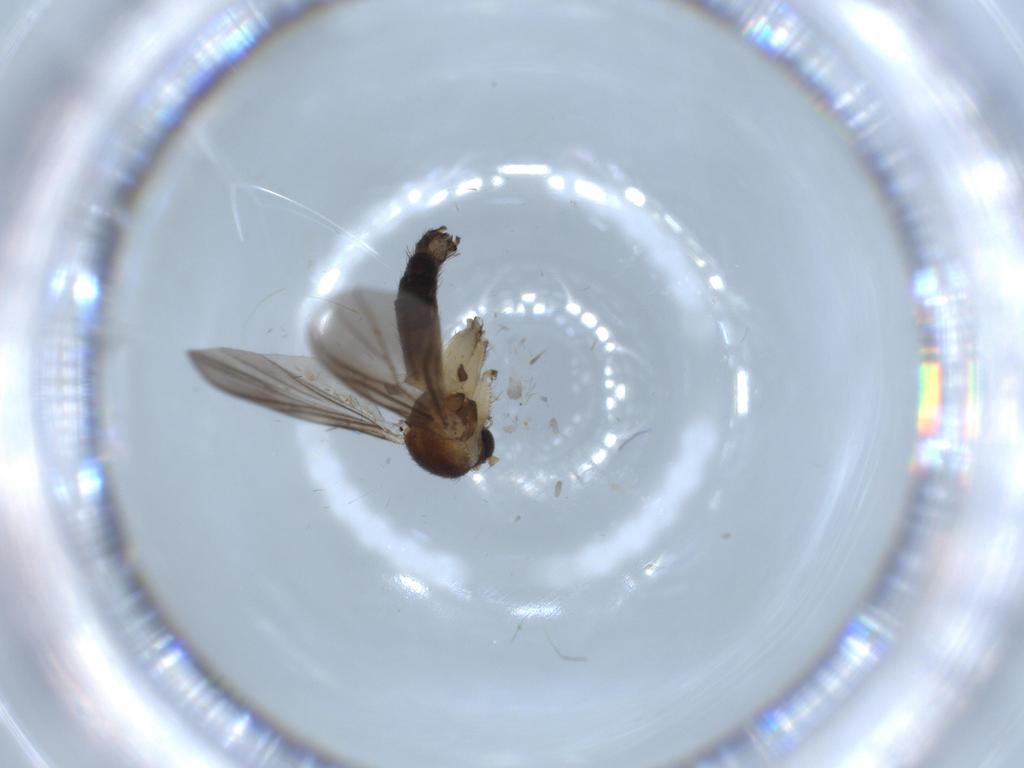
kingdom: Animalia
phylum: Arthropoda
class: Insecta
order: Diptera
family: Mycetophilidae
